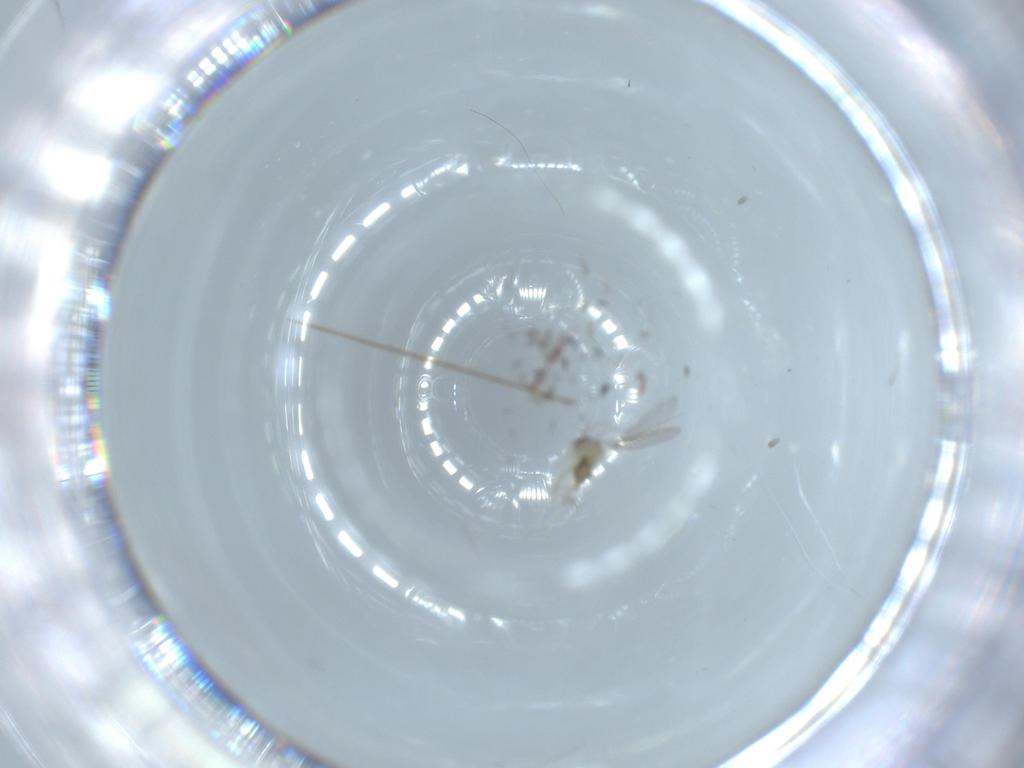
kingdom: Animalia
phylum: Arthropoda
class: Insecta
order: Diptera
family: Cecidomyiidae
